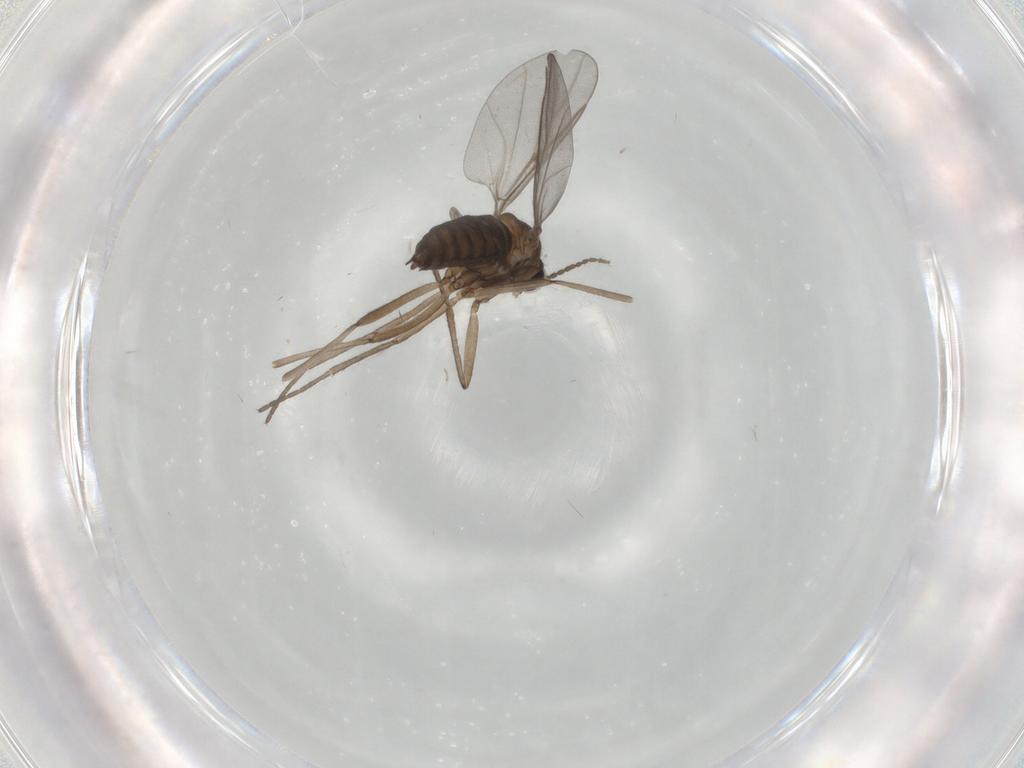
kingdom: Animalia
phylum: Arthropoda
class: Insecta
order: Diptera
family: Cecidomyiidae
